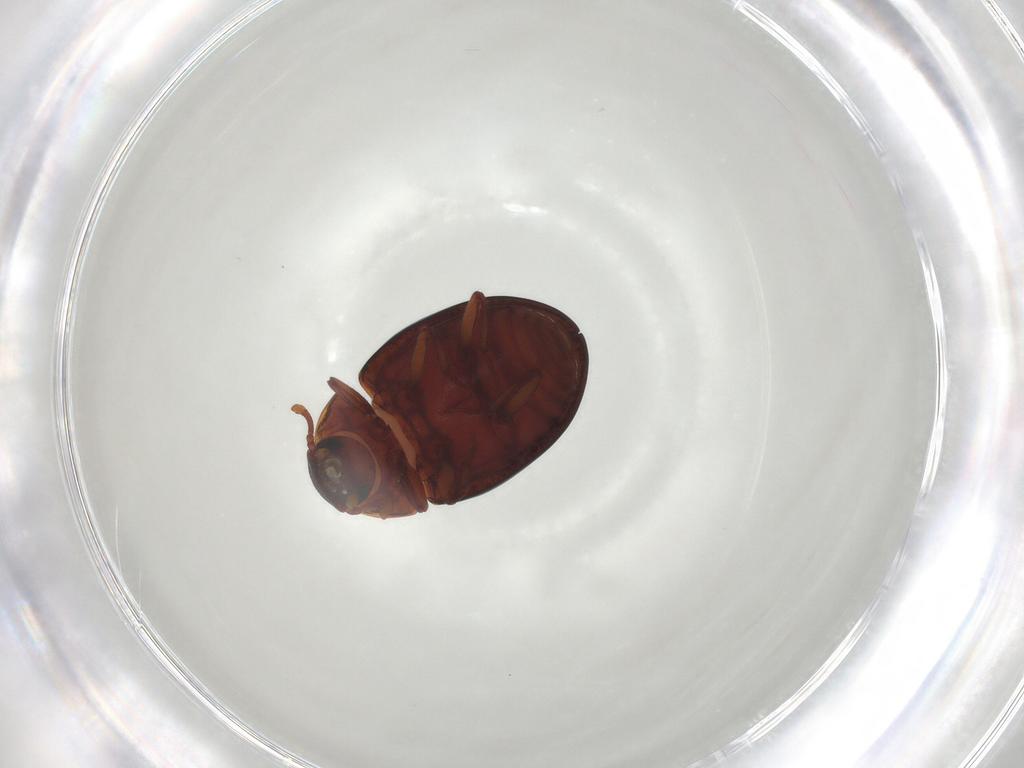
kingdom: Animalia
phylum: Arthropoda
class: Insecta
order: Coleoptera
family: Zopheridae
